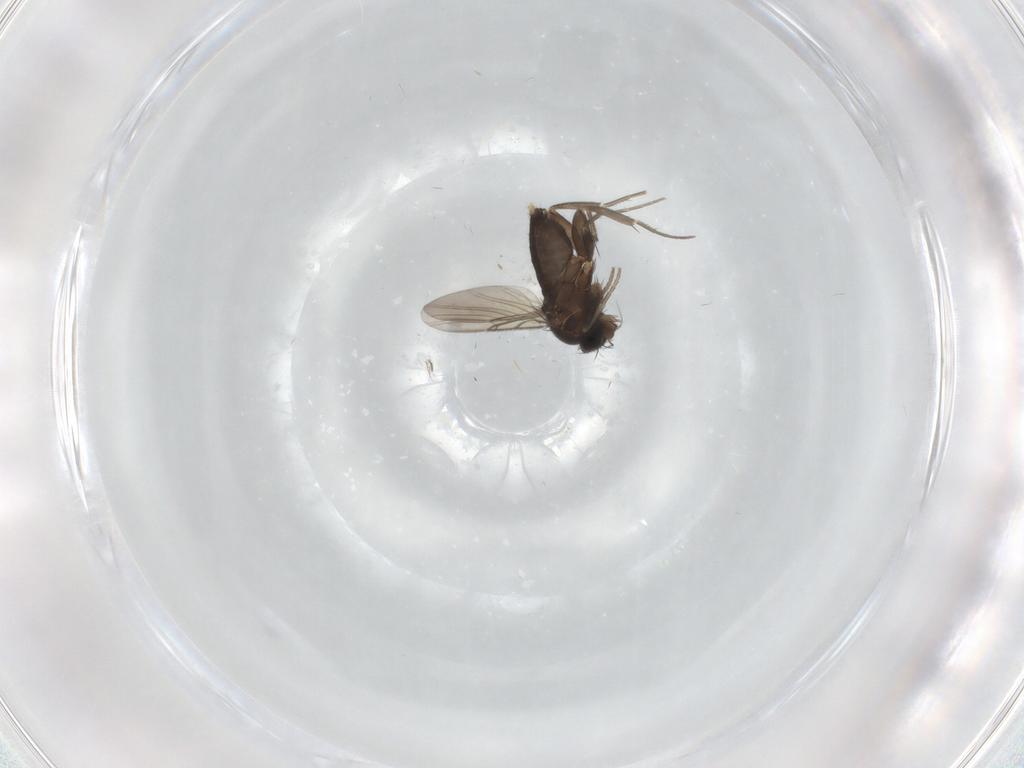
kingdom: Animalia
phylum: Arthropoda
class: Insecta
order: Diptera
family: Phoridae
